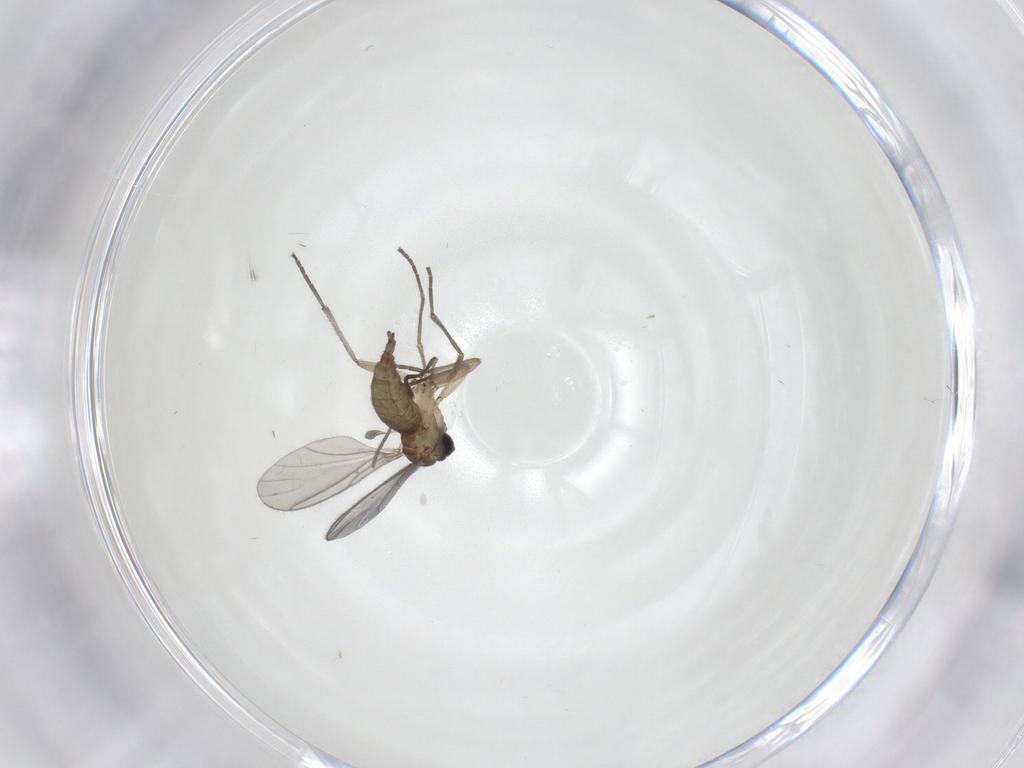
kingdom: Animalia
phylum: Arthropoda
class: Insecta
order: Diptera
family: Sciaridae
